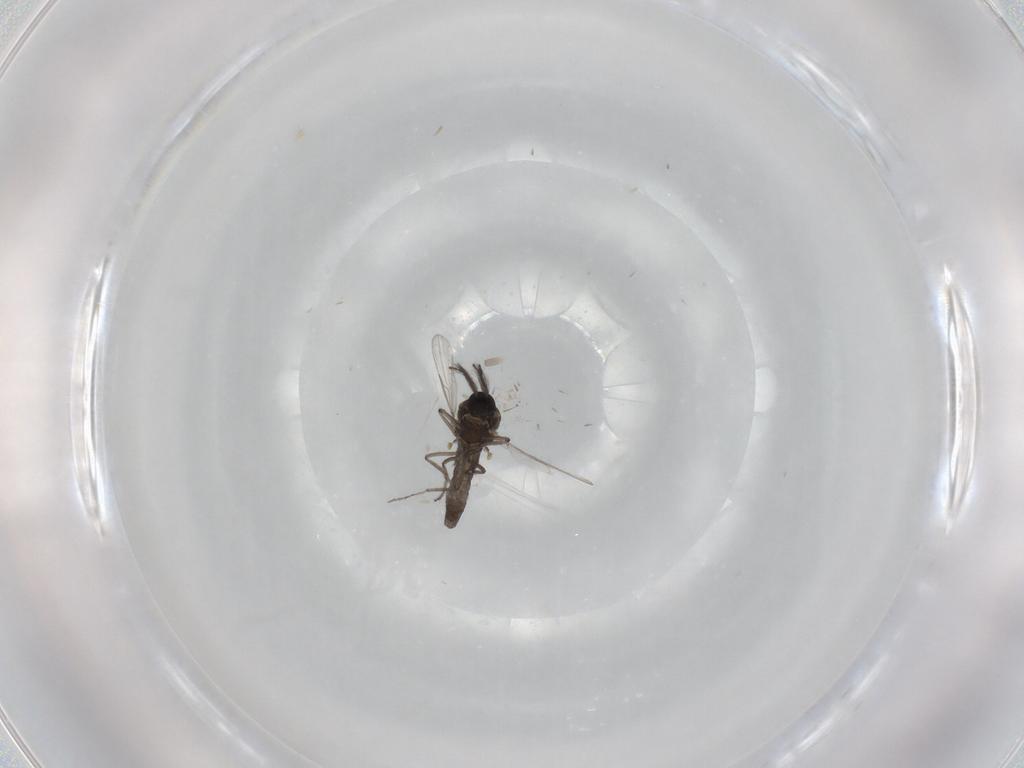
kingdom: Animalia
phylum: Arthropoda
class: Insecta
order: Diptera
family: Ceratopogonidae
